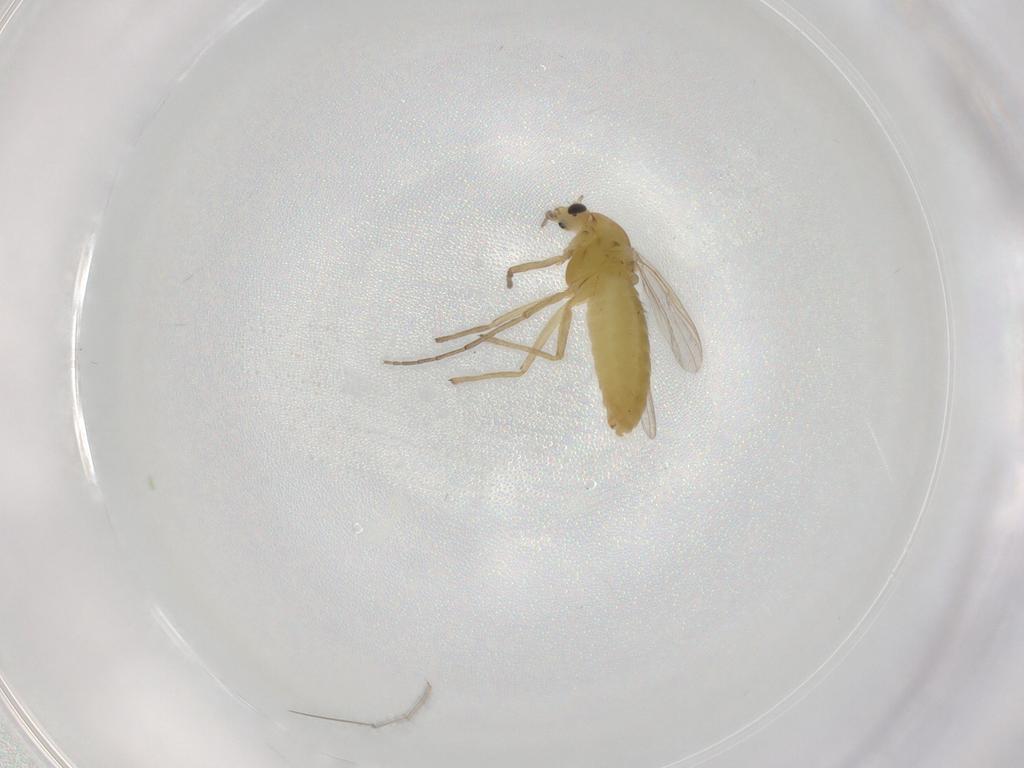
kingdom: Animalia
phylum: Arthropoda
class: Insecta
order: Diptera
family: Chironomidae
